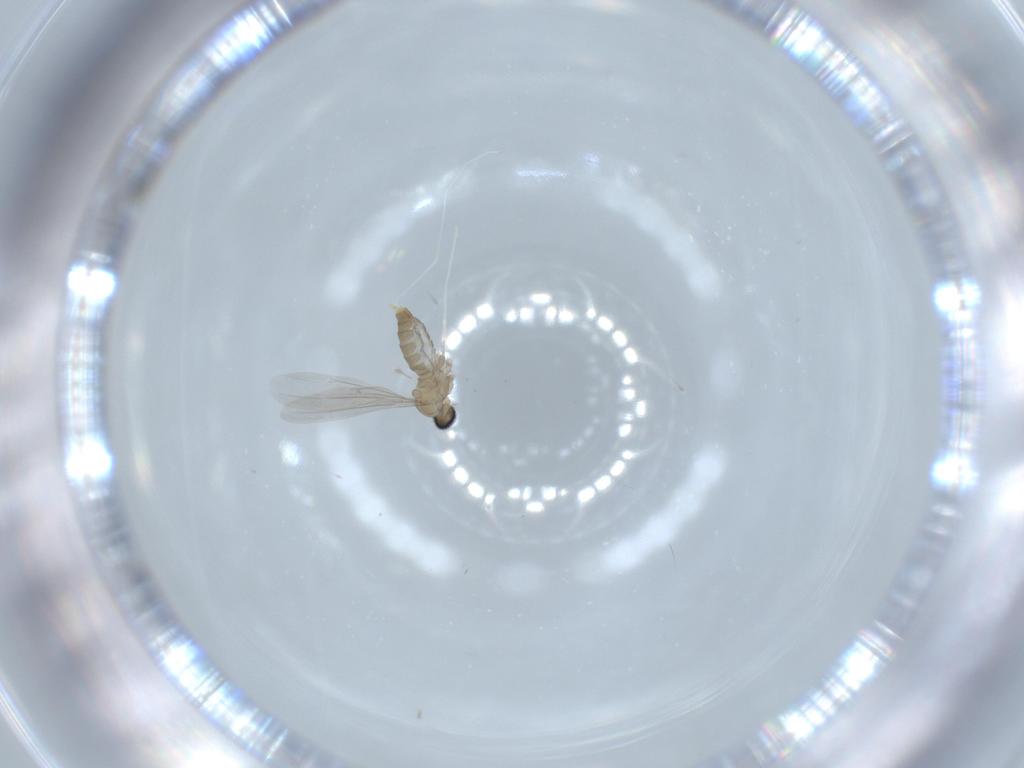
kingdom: Animalia
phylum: Arthropoda
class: Insecta
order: Diptera
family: Cecidomyiidae
